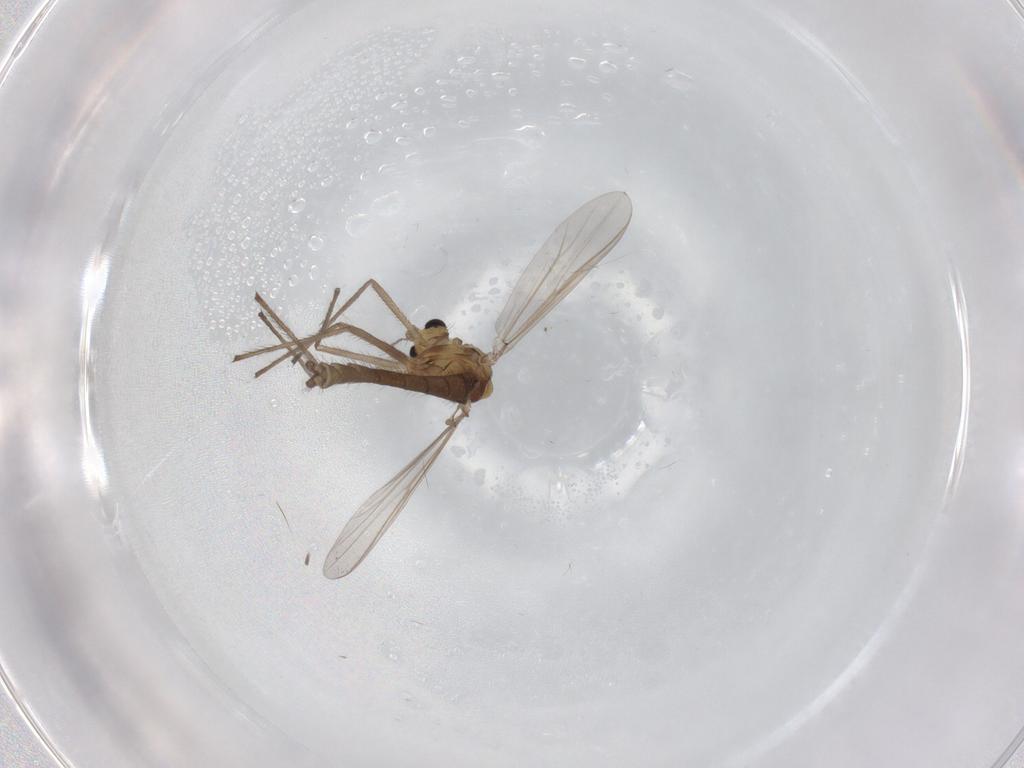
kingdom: Animalia
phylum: Arthropoda
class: Insecta
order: Diptera
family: Chironomidae
